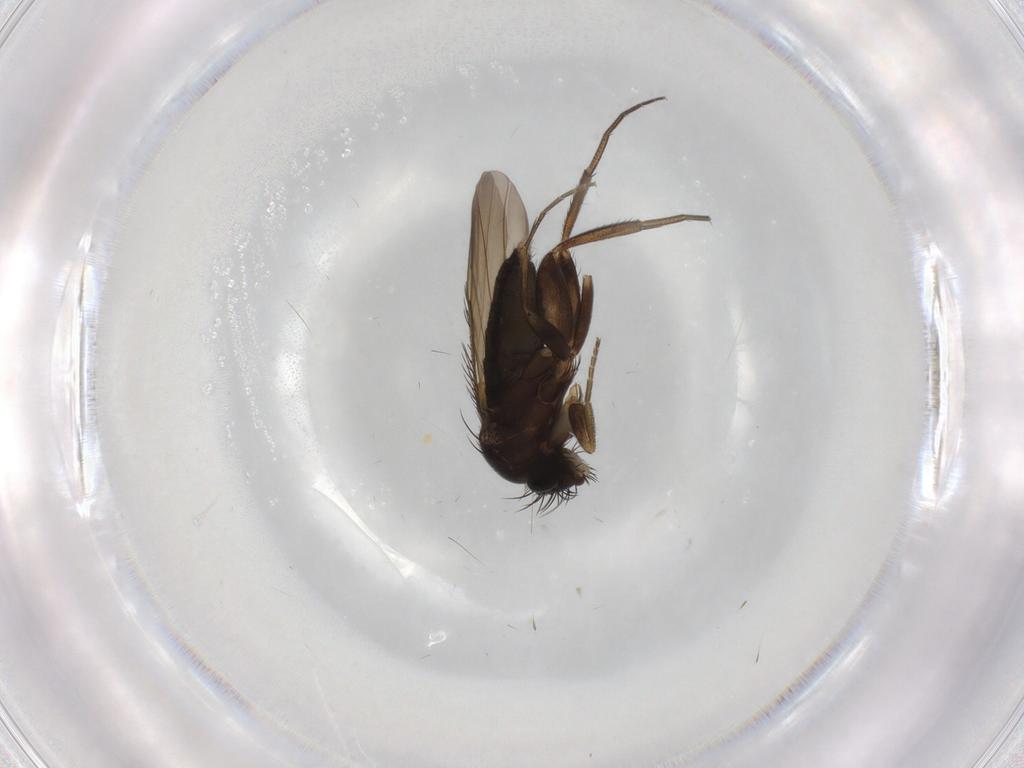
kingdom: Animalia
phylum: Arthropoda
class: Insecta
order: Diptera
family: Phoridae
